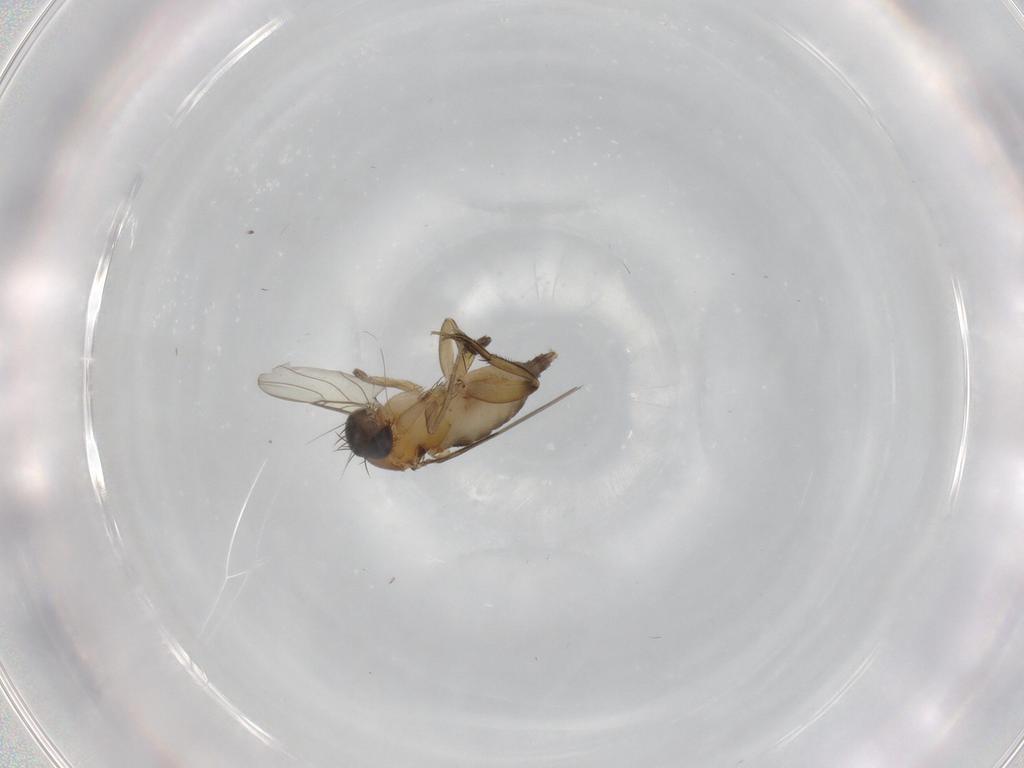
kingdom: Animalia
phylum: Arthropoda
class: Insecta
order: Diptera
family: Phoridae
